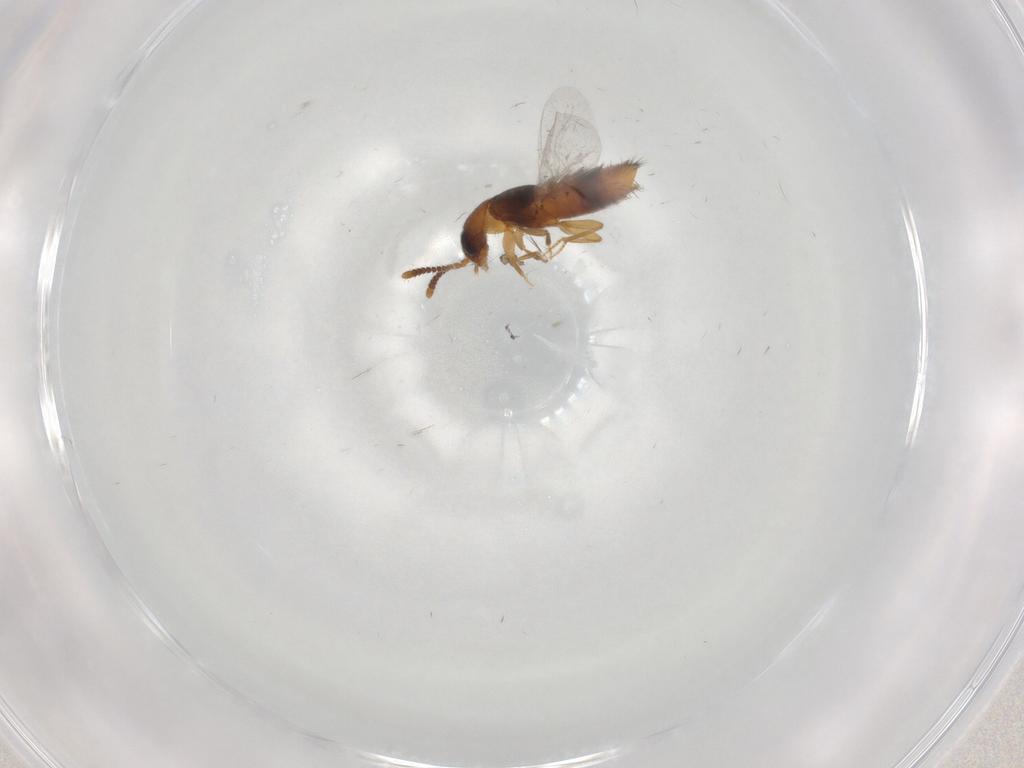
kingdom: Animalia
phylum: Arthropoda
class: Insecta
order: Coleoptera
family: Staphylinidae
